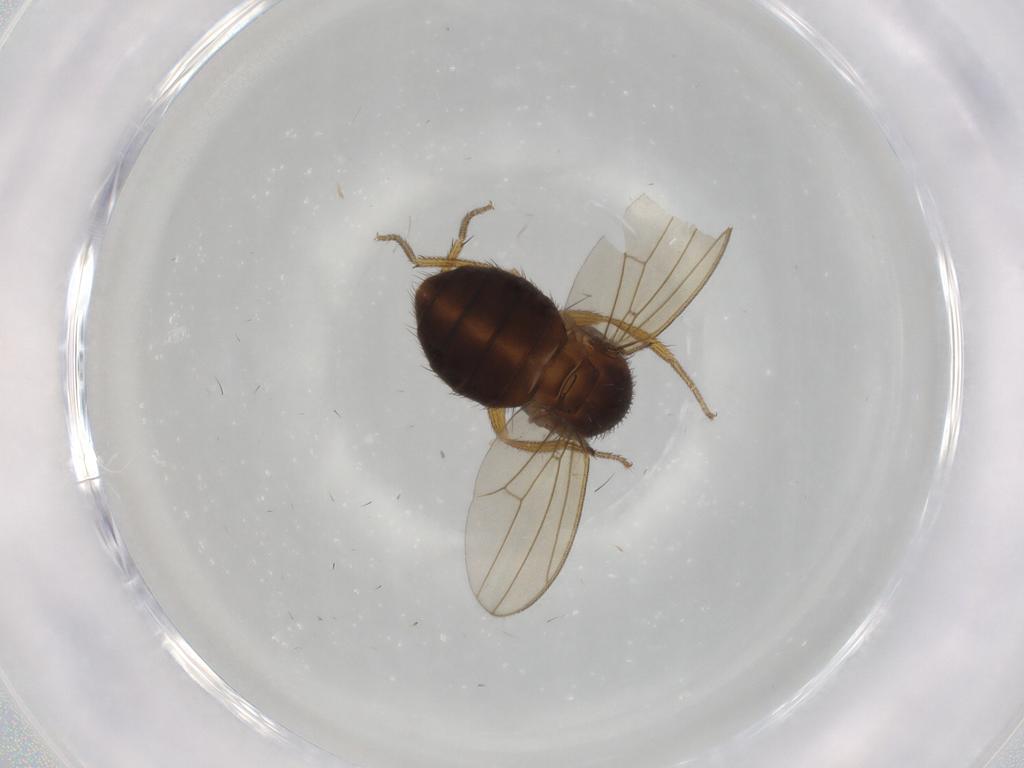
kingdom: Animalia
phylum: Arthropoda
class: Insecta
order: Diptera
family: Drosophilidae
